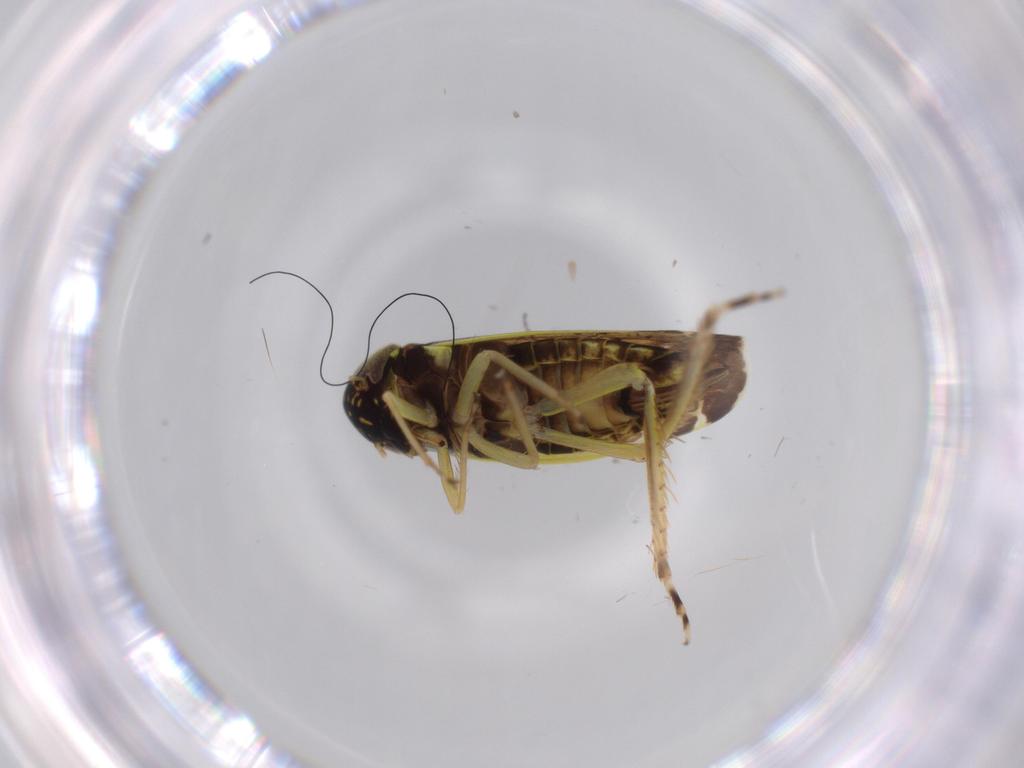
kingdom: Animalia
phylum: Arthropoda
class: Insecta
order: Hemiptera
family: Cicadellidae
